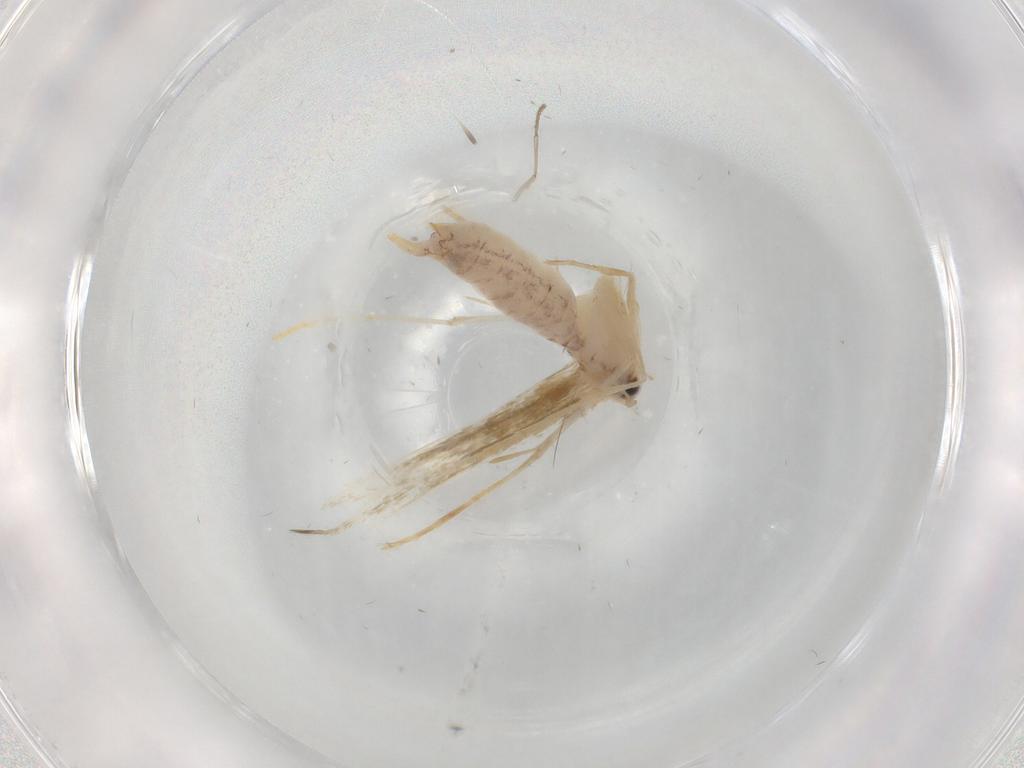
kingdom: Animalia
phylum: Arthropoda
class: Insecta
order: Lepidoptera
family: Lyonetiidae
